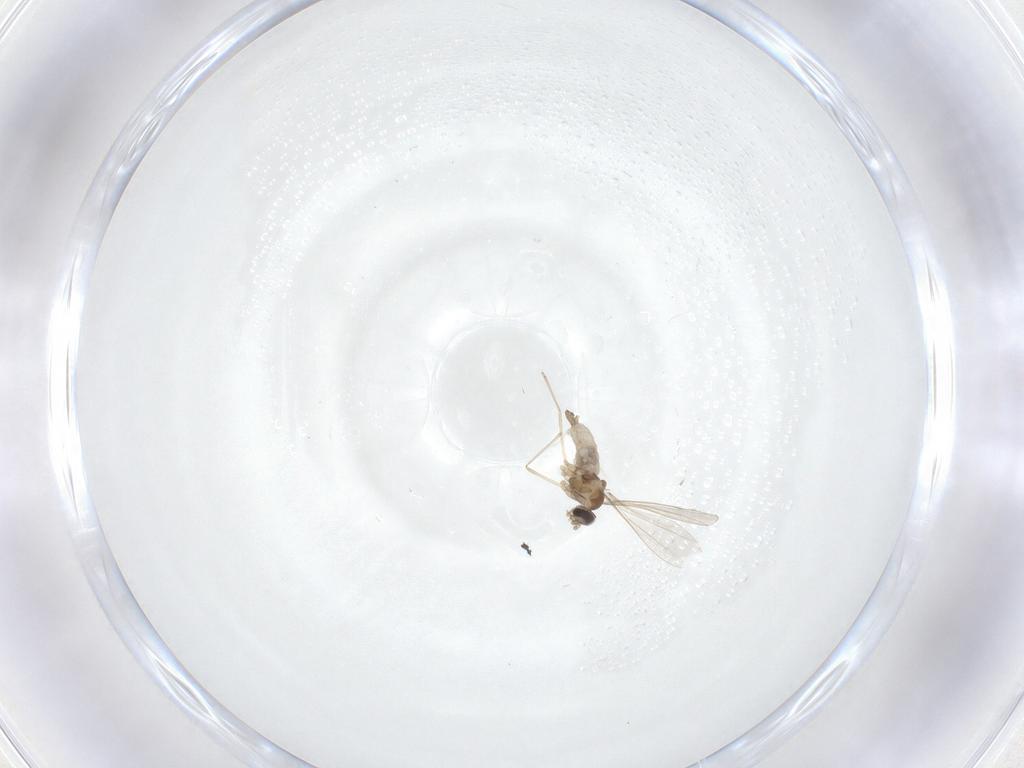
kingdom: Animalia
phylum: Arthropoda
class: Insecta
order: Diptera
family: Cecidomyiidae
